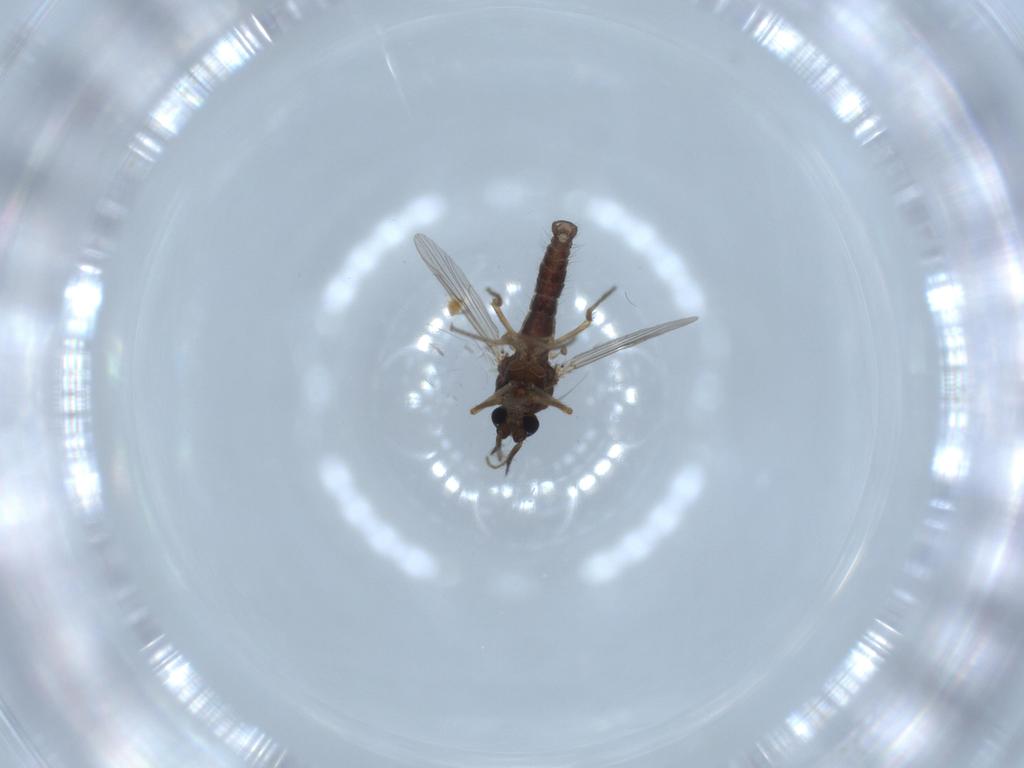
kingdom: Animalia
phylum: Arthropoda
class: Insecta
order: Diptera
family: Ceratopogonidae
